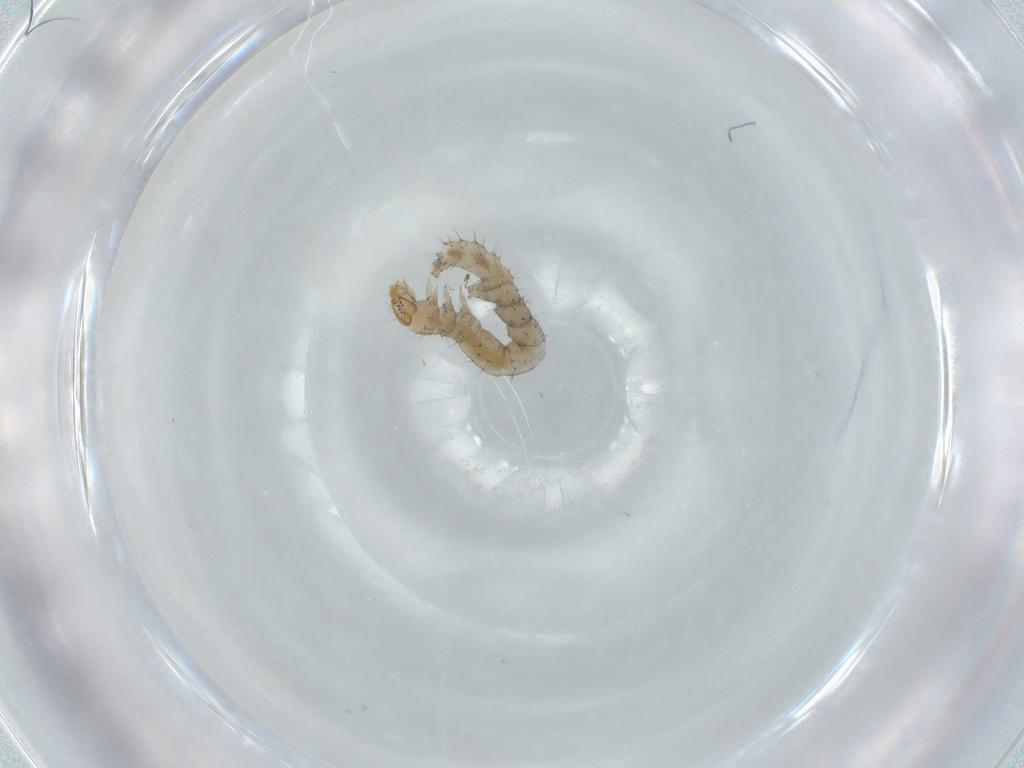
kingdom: Animalia
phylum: Arthropoda
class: Insecta
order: Lepidoptera
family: Erebidae
